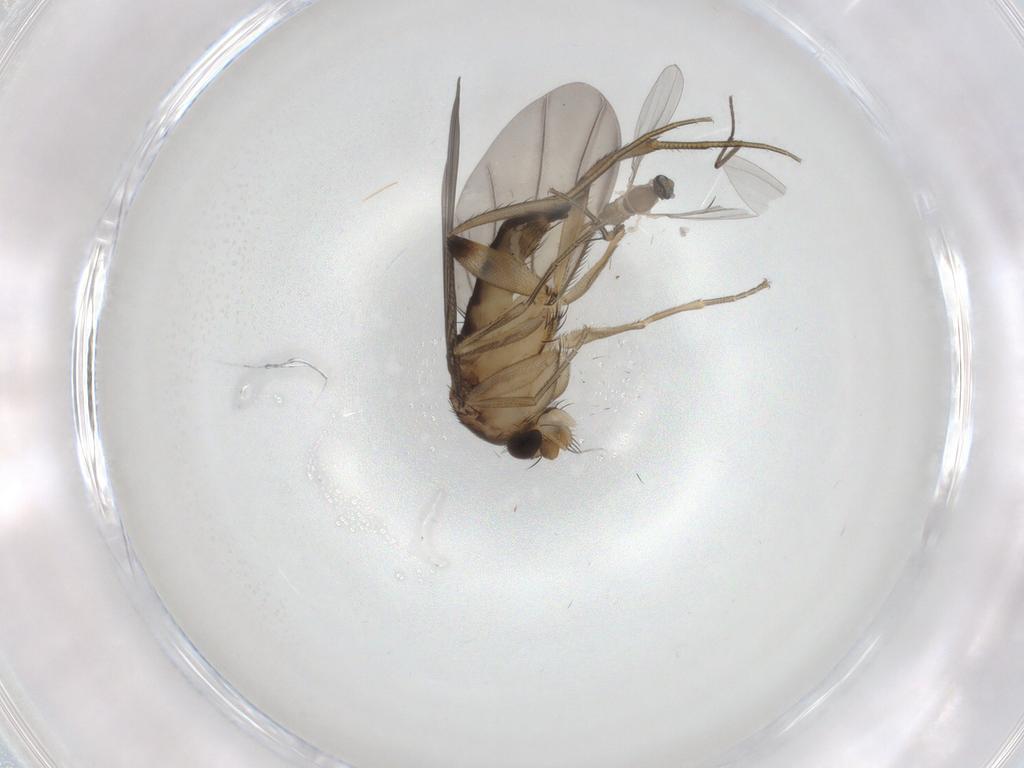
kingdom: Animalia
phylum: Arthropoda
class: Insecta
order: Diptera
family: Phoridae
